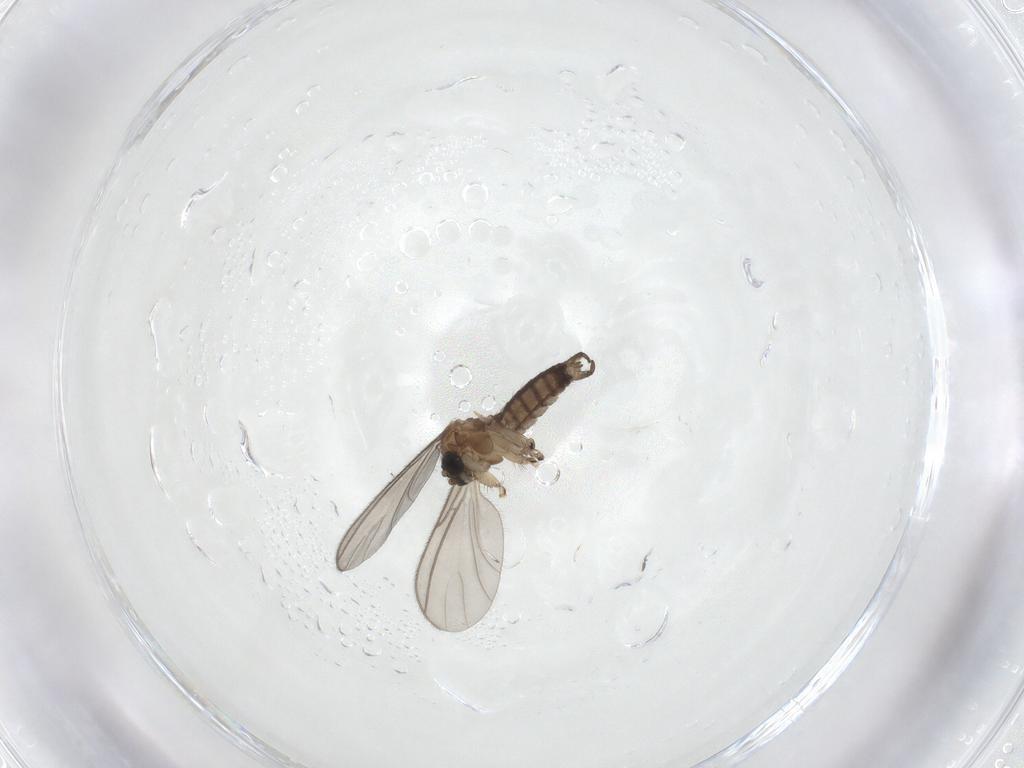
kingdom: Animalia
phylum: Arthropoda
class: Insecta
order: Diptera
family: Sciaridae
